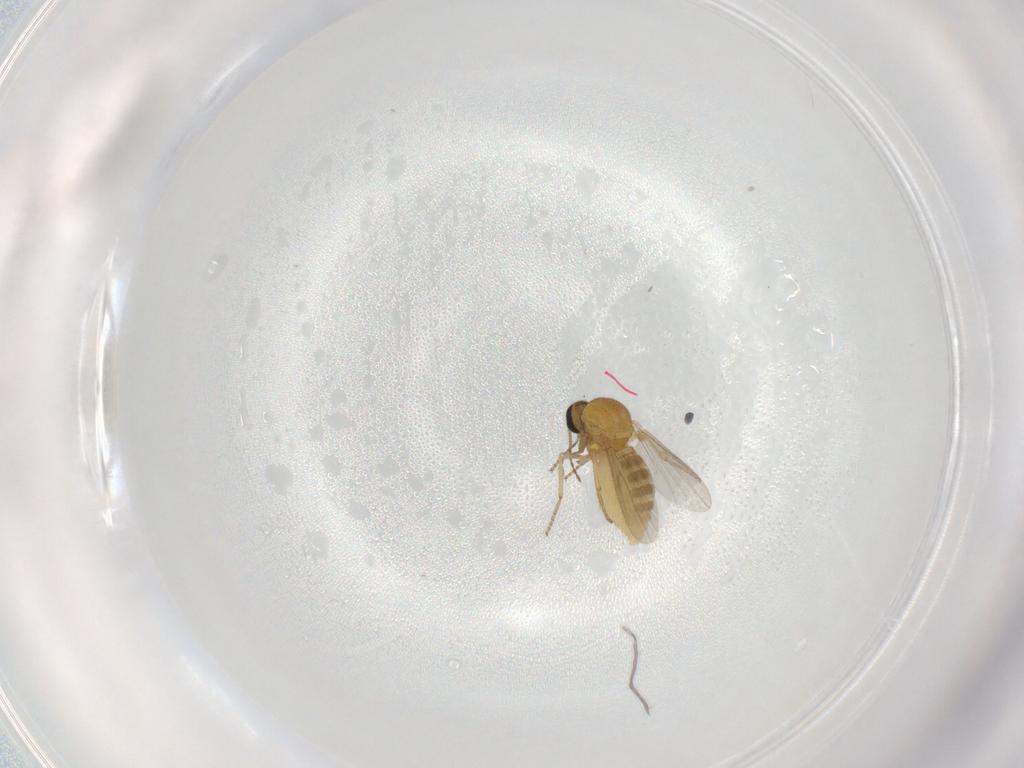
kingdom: Animalia
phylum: Arthropoda
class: Insecta
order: Diptera
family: Ceratopogonidae
